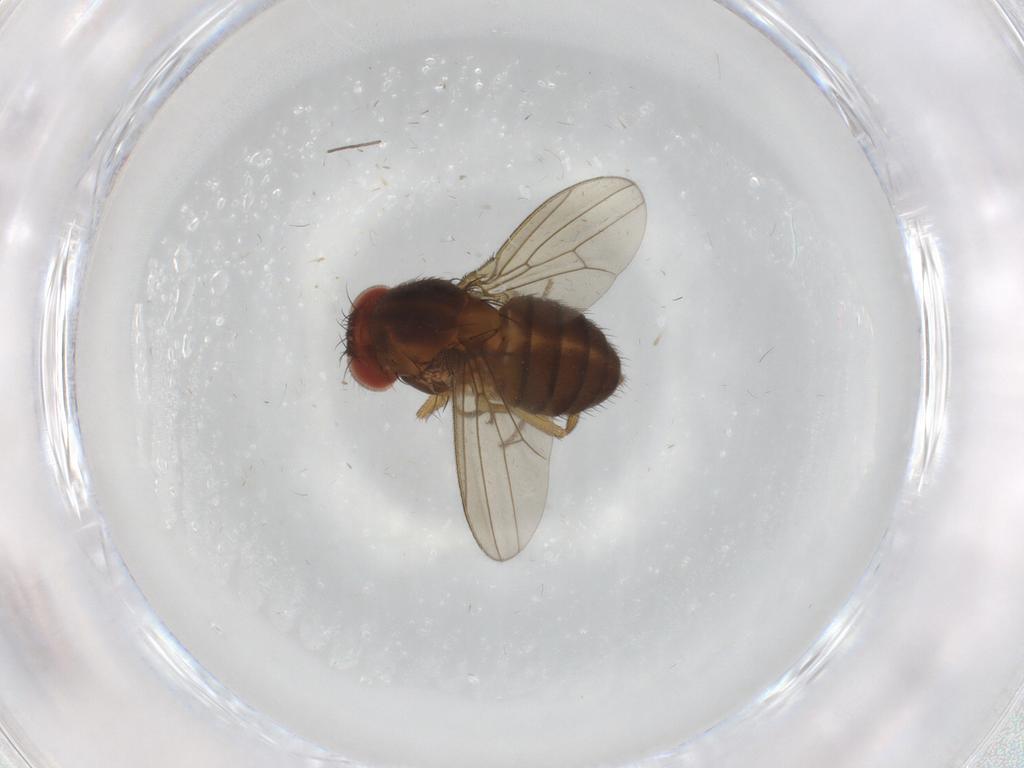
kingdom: Animalia
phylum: Arthropoda
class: Insecta
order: Diptera
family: Drosophilidae
